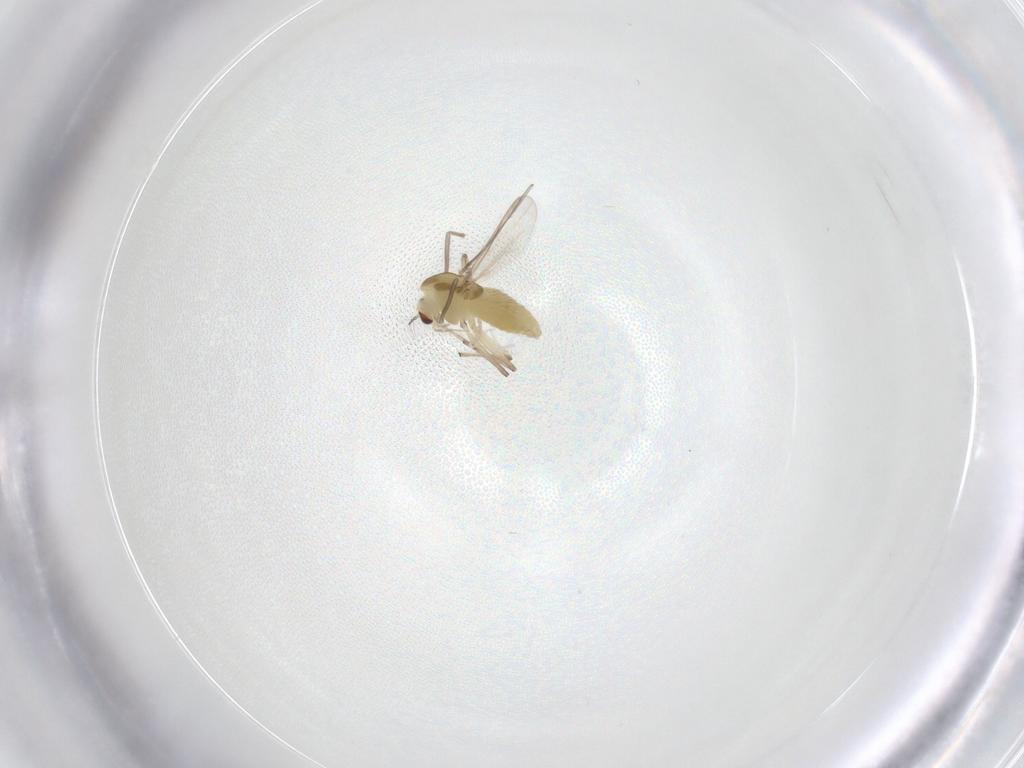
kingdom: Animalia
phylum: Arthropoda
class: Insecta
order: Diptera
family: Chironomidae
